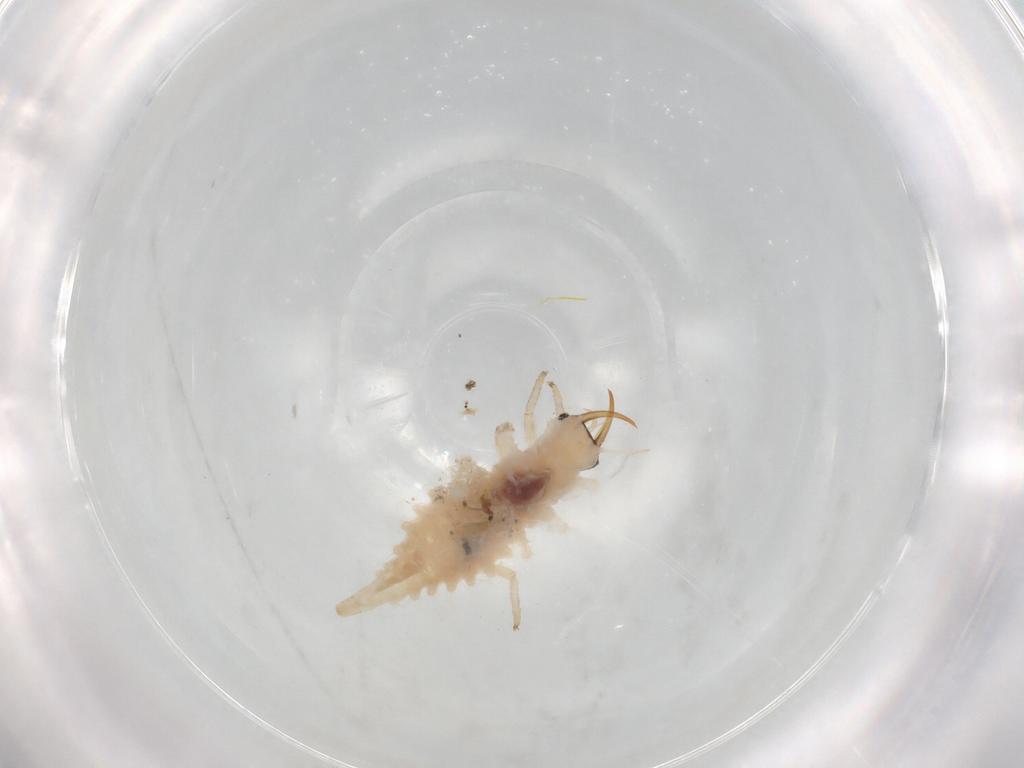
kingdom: Animalia
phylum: Arthropoda
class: Insecta
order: Neuroptera
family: Chrysopidae
